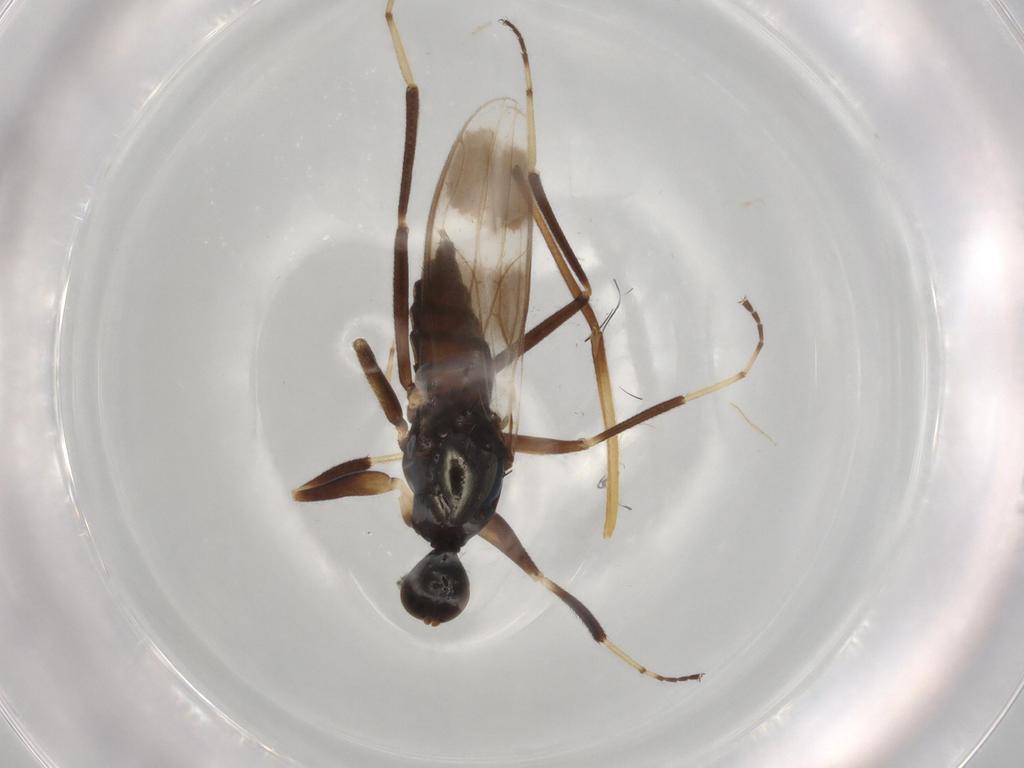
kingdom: Animalia
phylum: Arthropoda
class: Insecta
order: Diptera
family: Hybotidae
